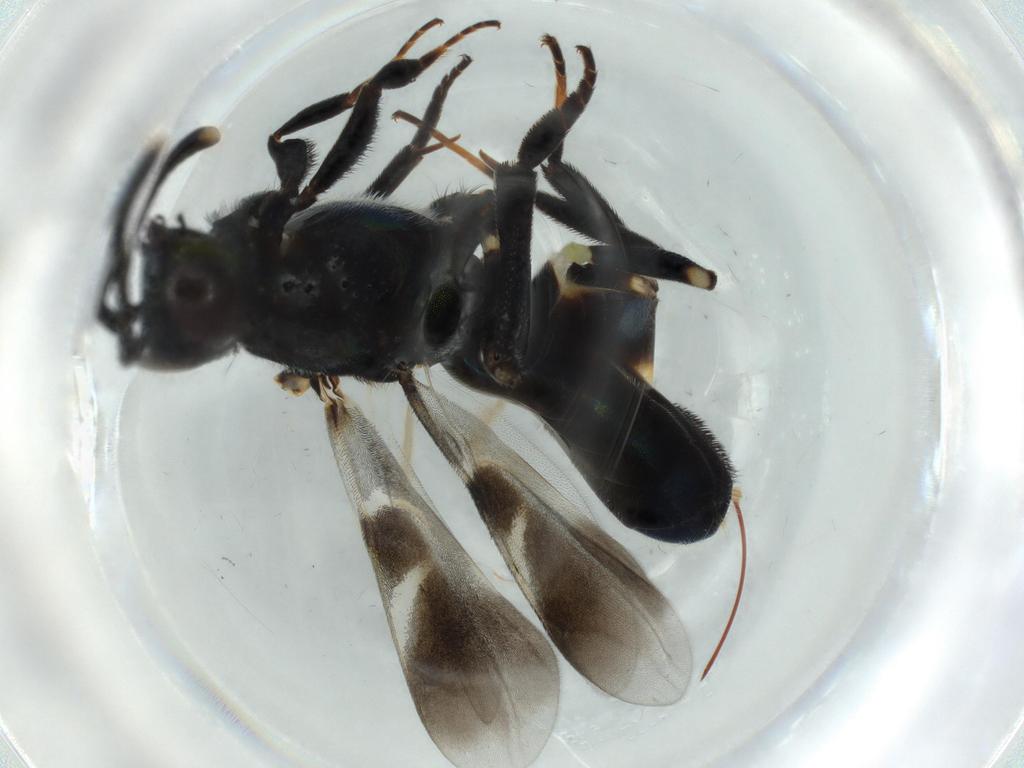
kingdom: Animalia
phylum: Arthropoda
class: Insecta
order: Hymenoptera
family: Eupelmidae
